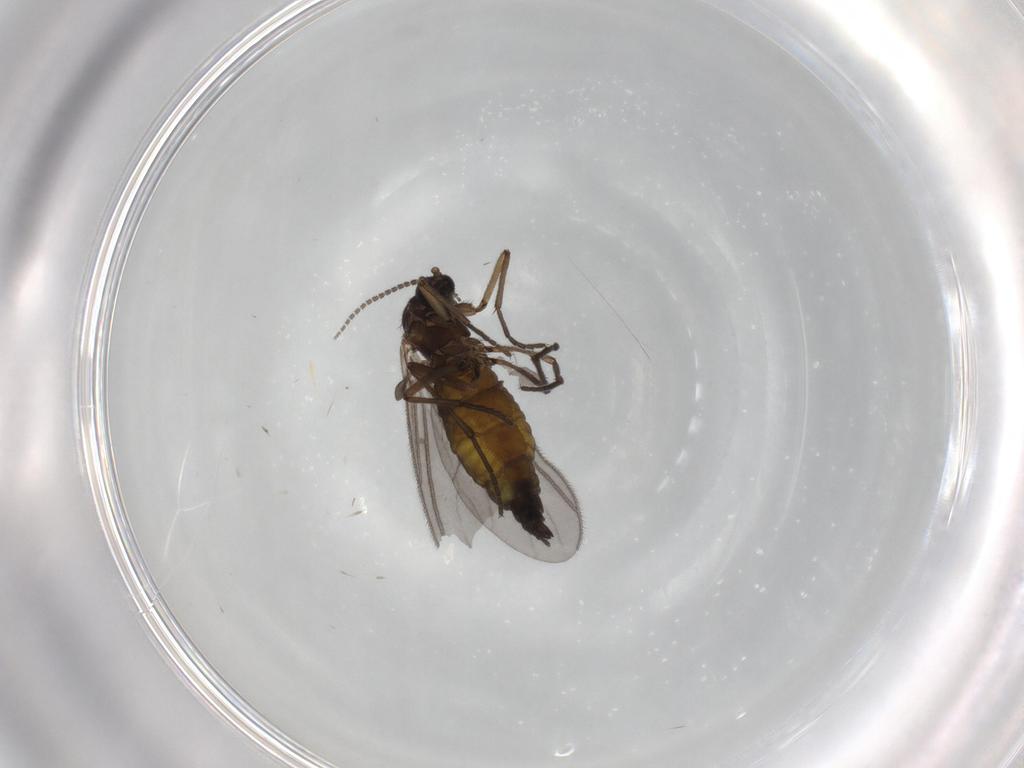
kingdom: Animalia
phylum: Arthropoda
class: Insecta
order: Diptera
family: Sciaridae
